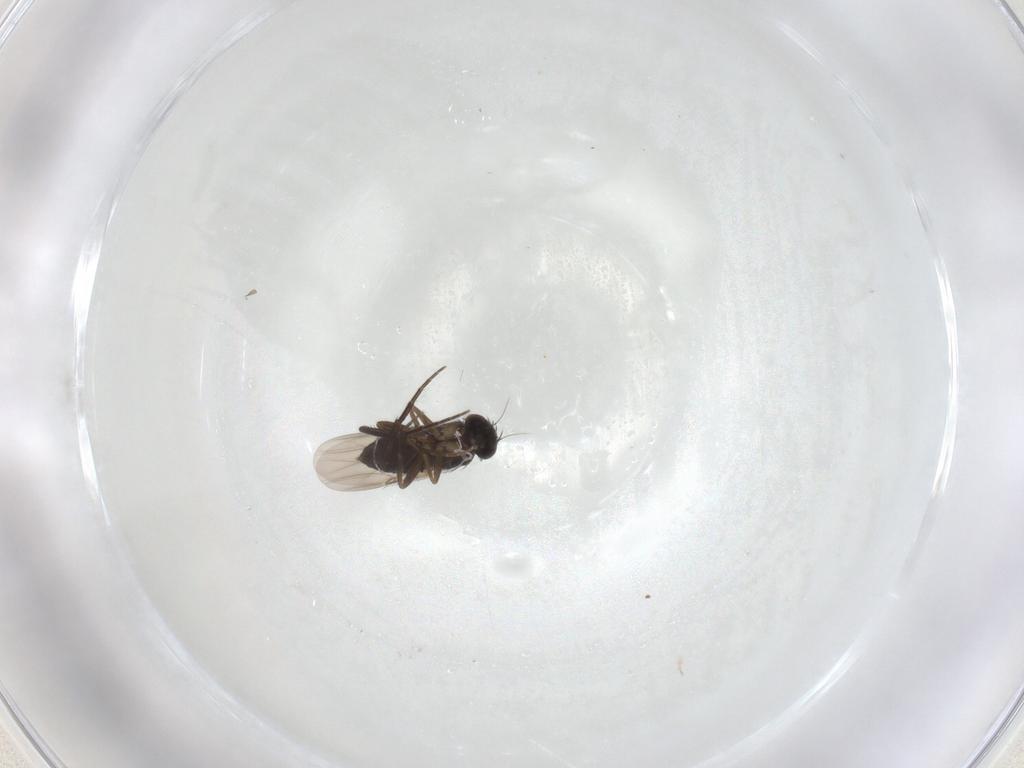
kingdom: Animalia
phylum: Arthropoda
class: Insecta
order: Diptera
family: Phoridae
